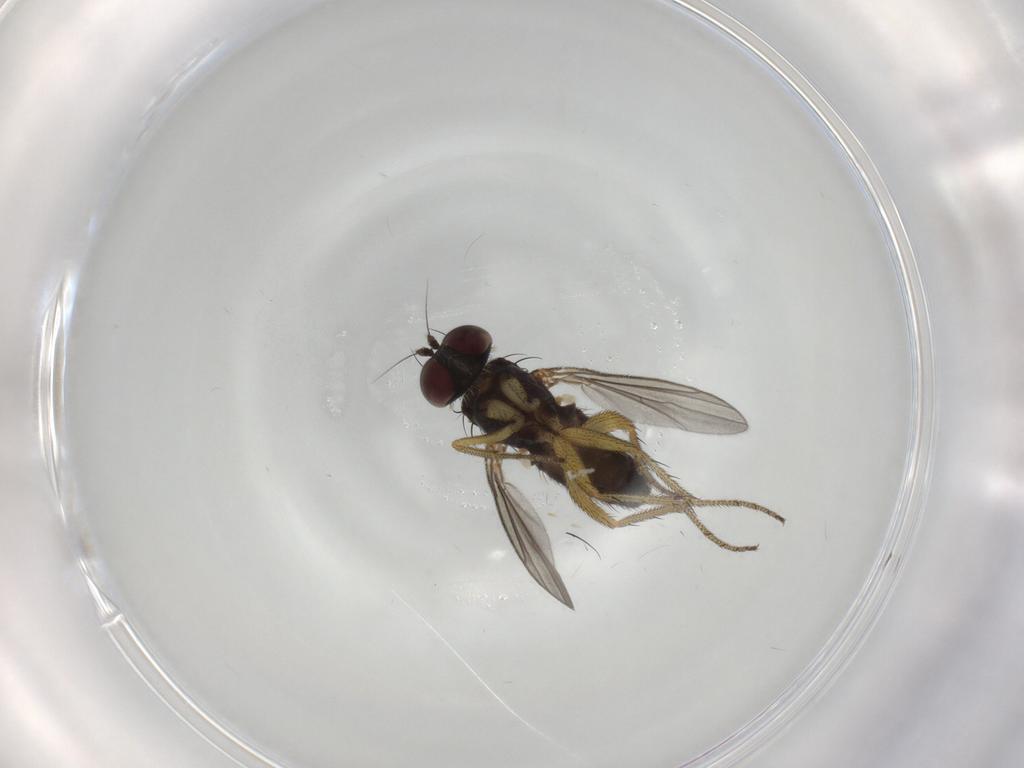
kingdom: Animalia
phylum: Arthropoda
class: Insecta
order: Diptera
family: Dolichopodidae
